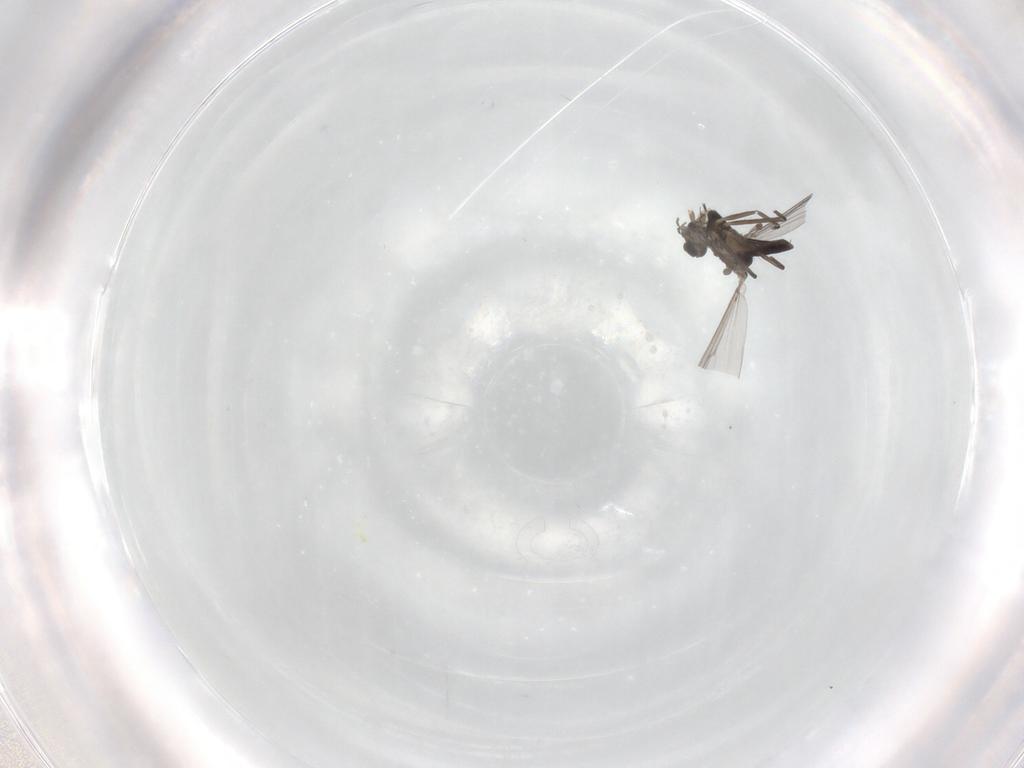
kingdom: Animalia
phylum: Arthropoda
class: Insecta
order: Diptera
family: Chironomidae
